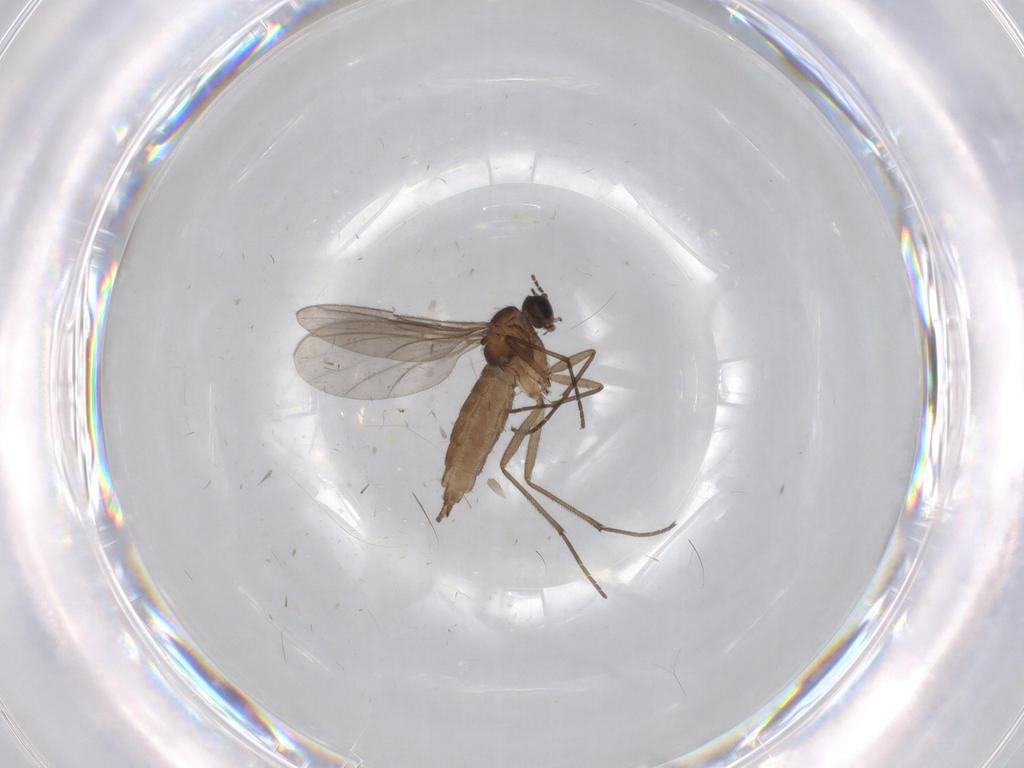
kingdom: Animalia
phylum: Arthropoda
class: Insecta
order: Diptera
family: Sciaridae
